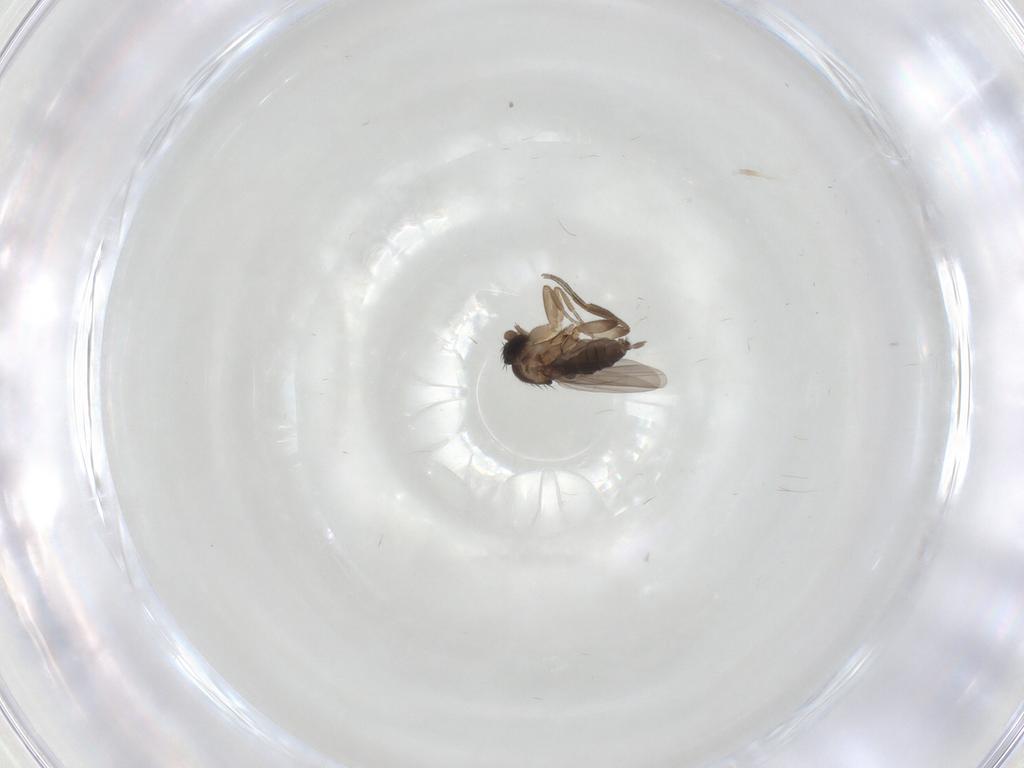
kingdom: Animalia
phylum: Arthropoda
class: Insecta
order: Diptera
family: Phoridae
